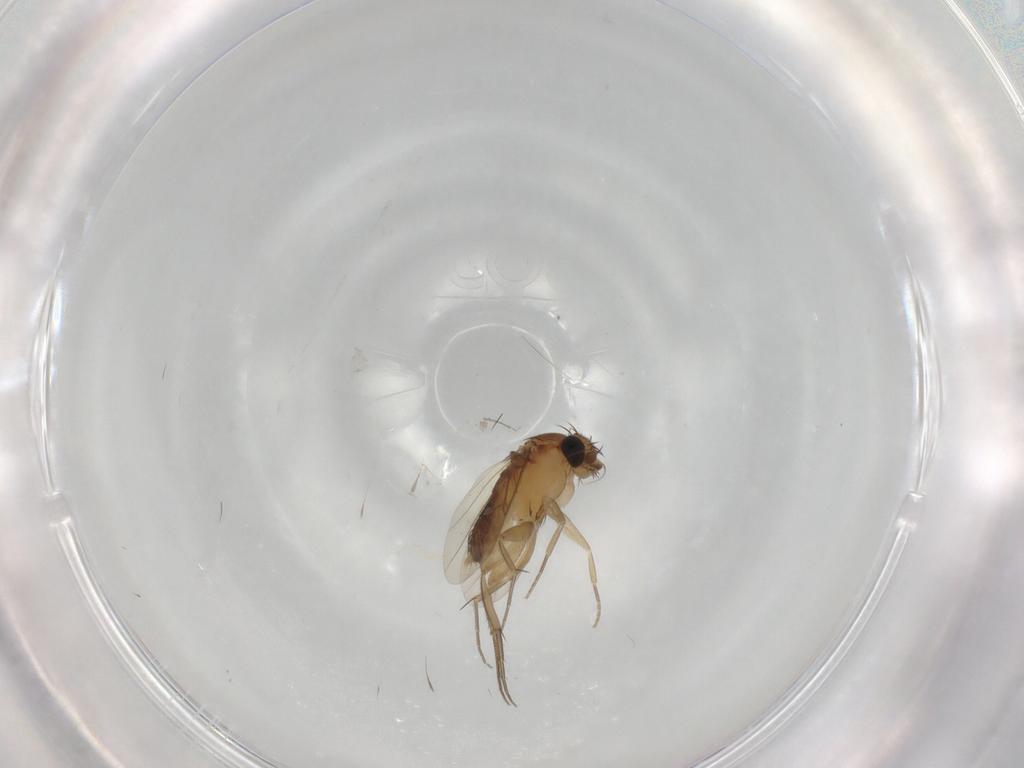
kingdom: Animalia
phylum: Arthropoda
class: Insecta
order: Diptera
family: Phoridae
